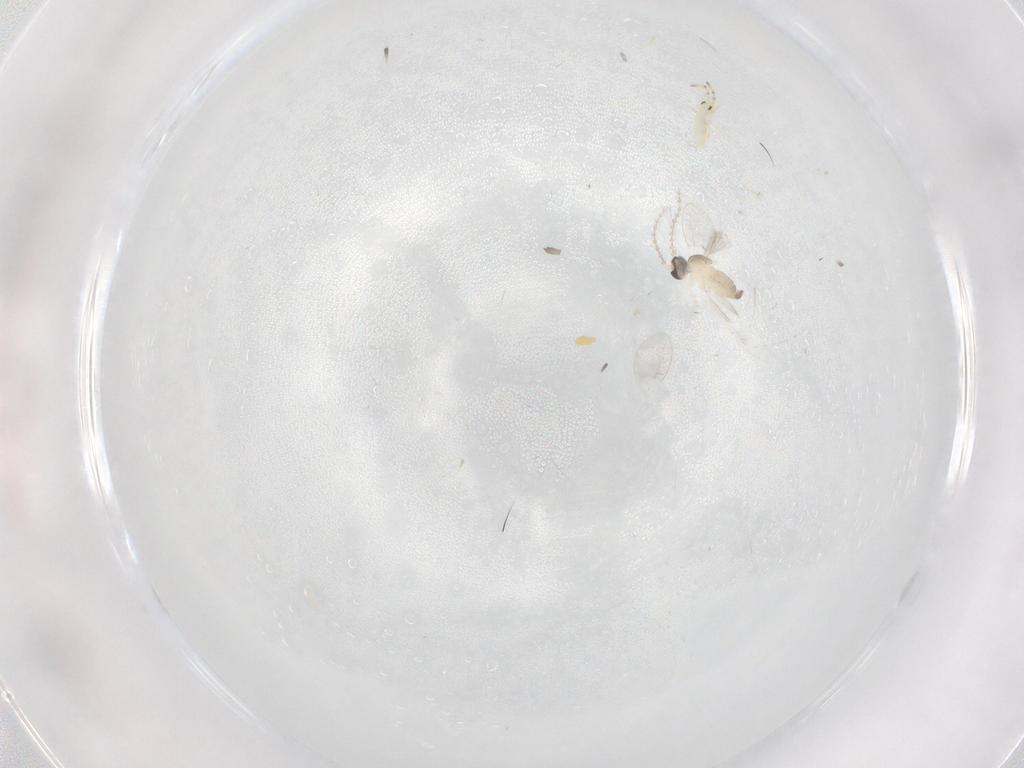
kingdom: Animalia
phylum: Arthropoda
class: Insecta
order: Diptera
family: Cecidomyiidae
